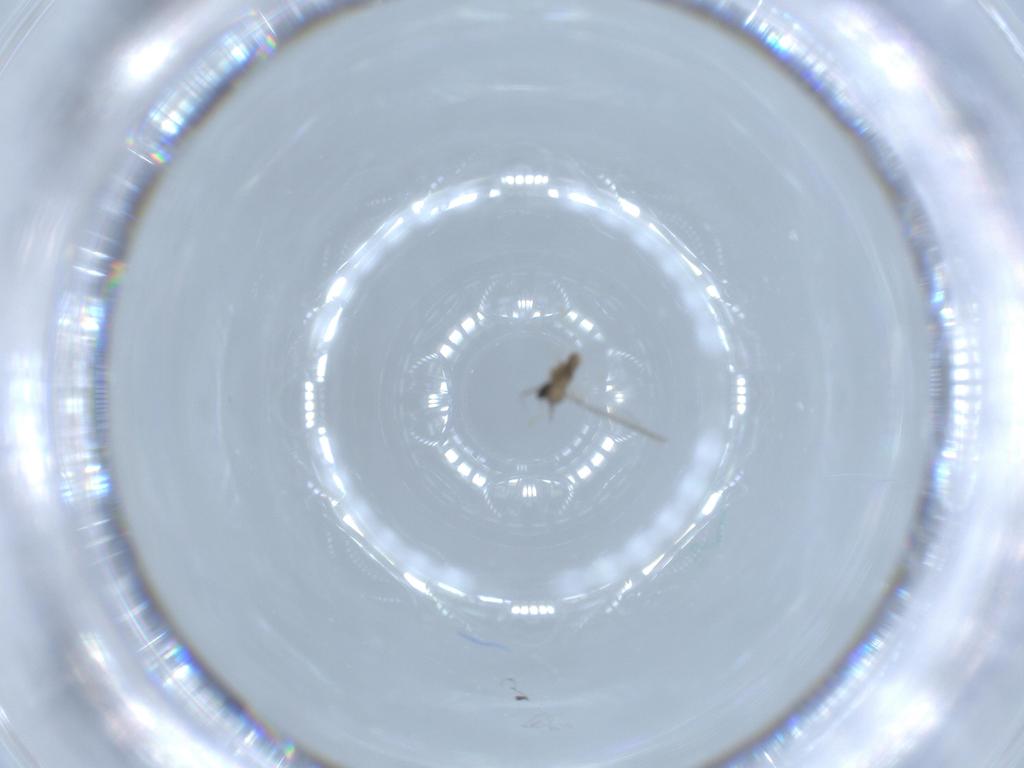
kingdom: Animalia
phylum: Arthropoda
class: Insecta
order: Diptera
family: Cecidomyiidae
